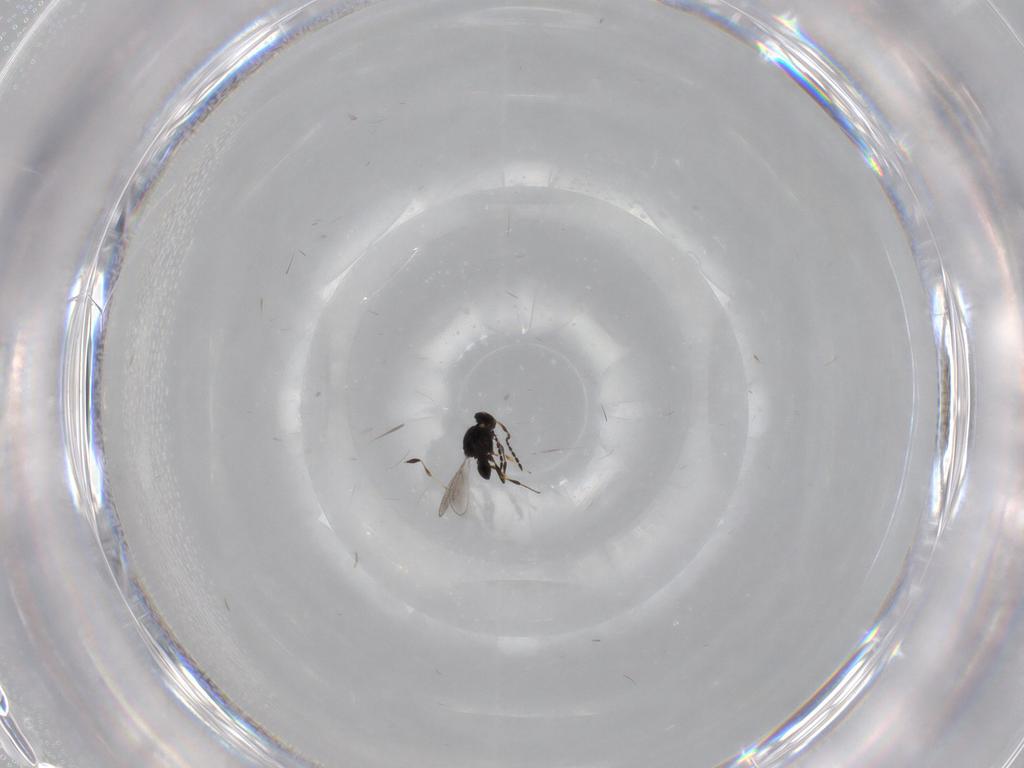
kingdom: Animalia
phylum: Arthropoda
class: Insecta
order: Hymenoptera
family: Platygastridae
